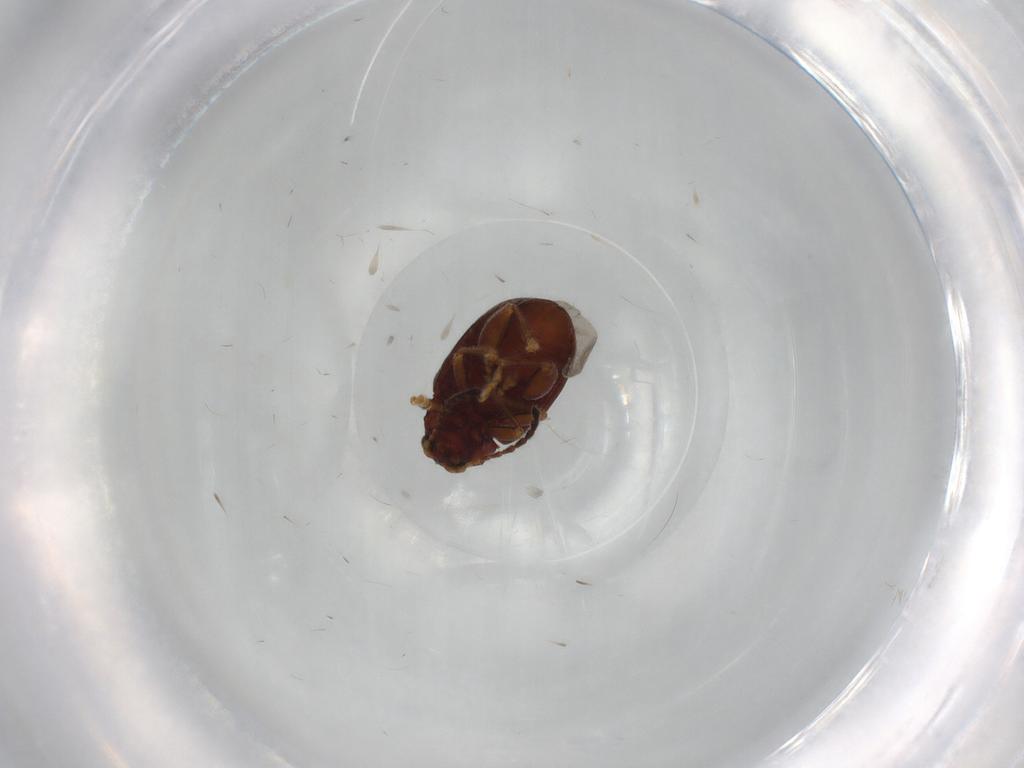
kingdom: Animalia
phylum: Arthropoda
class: Insecta
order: Coleoptera
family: Chrysomelidae
